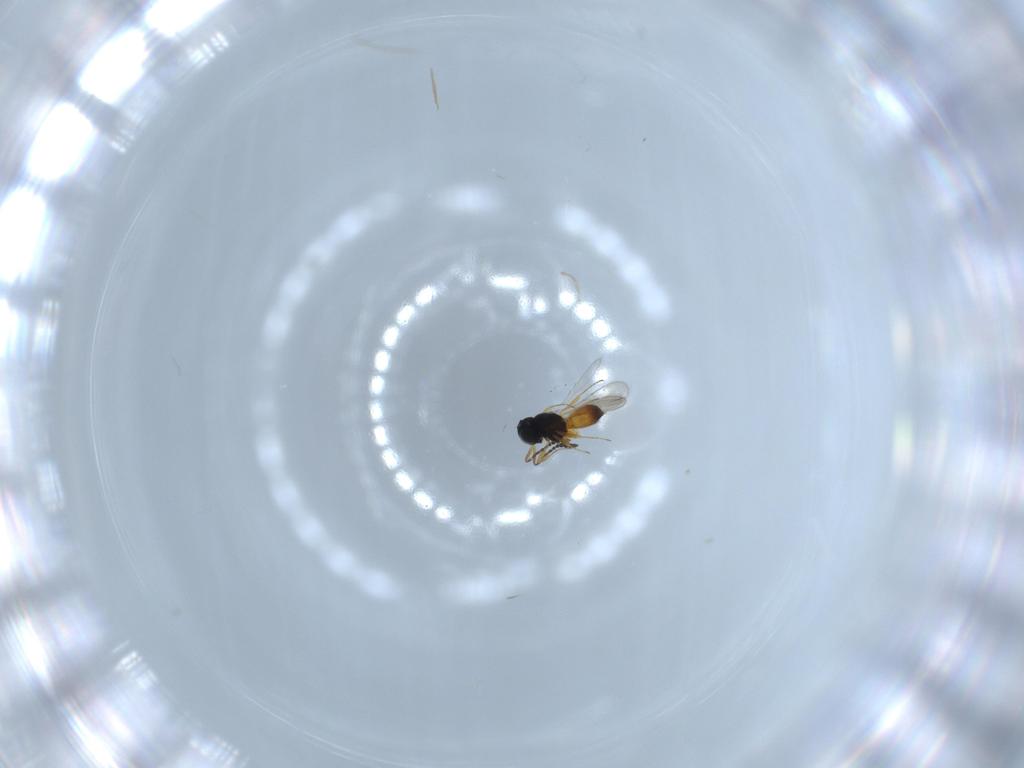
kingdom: Animalia
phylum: Arthropoda
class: Insecta
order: Hymenoptera
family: Scelionidae
